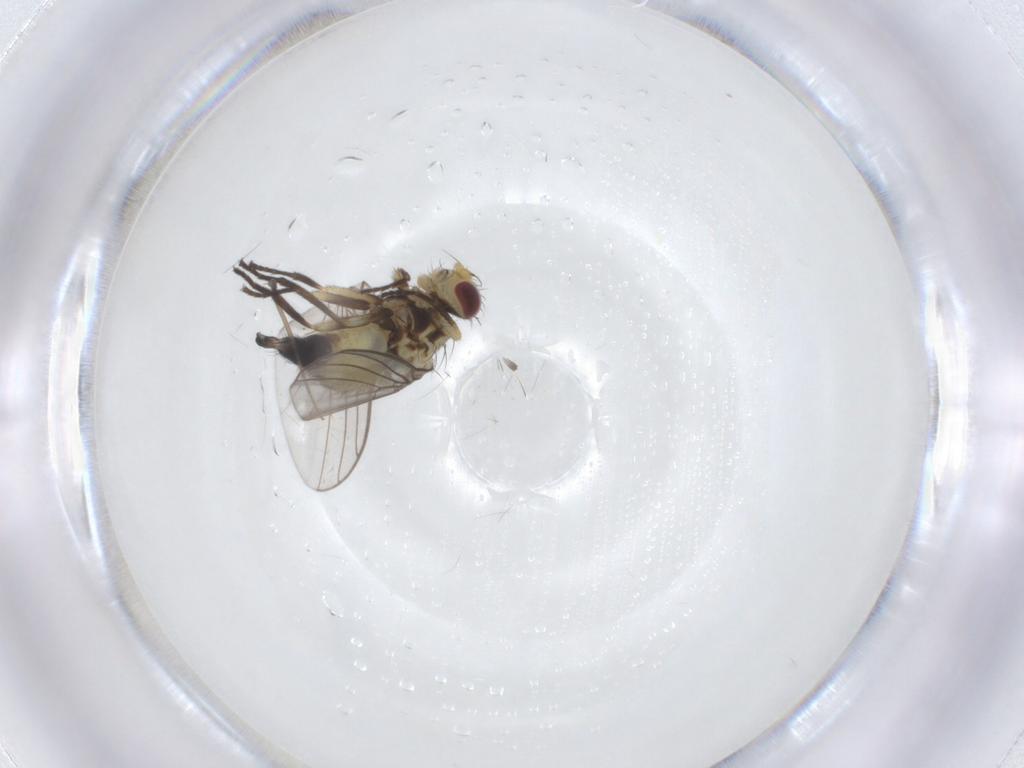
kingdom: Animalia
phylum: Arthropoda
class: Insecta
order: Diptera
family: Agromyzidae
